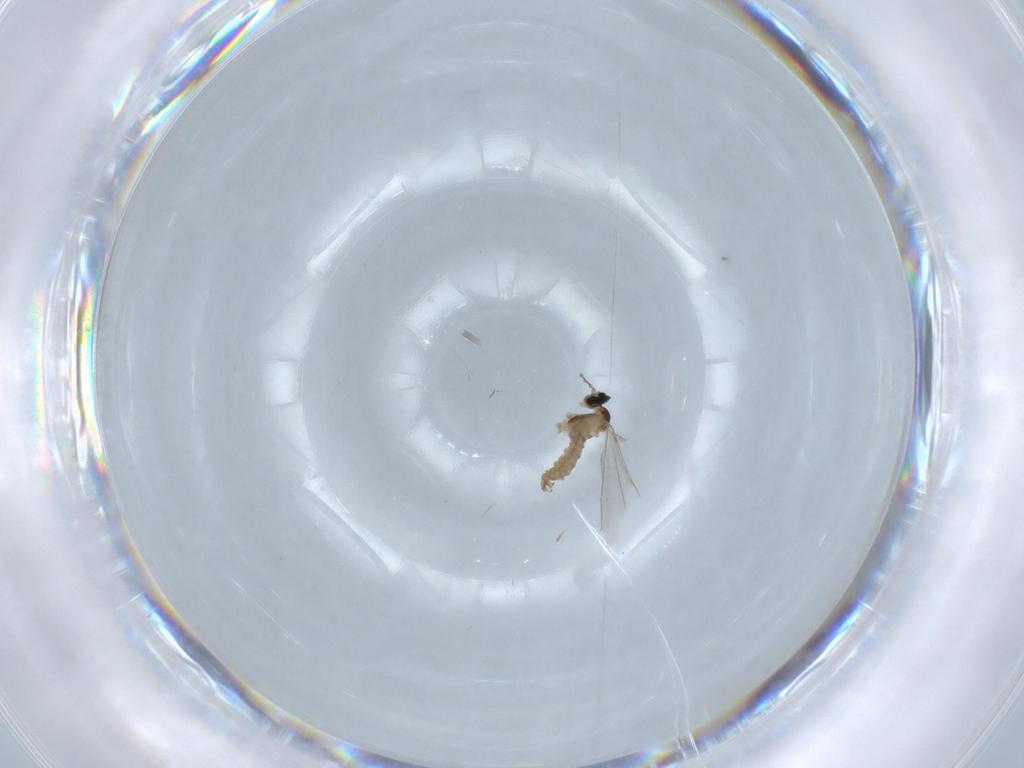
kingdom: Animalia
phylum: Arthropoda
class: Insecta
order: Diptera
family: Cecidomyiidae
